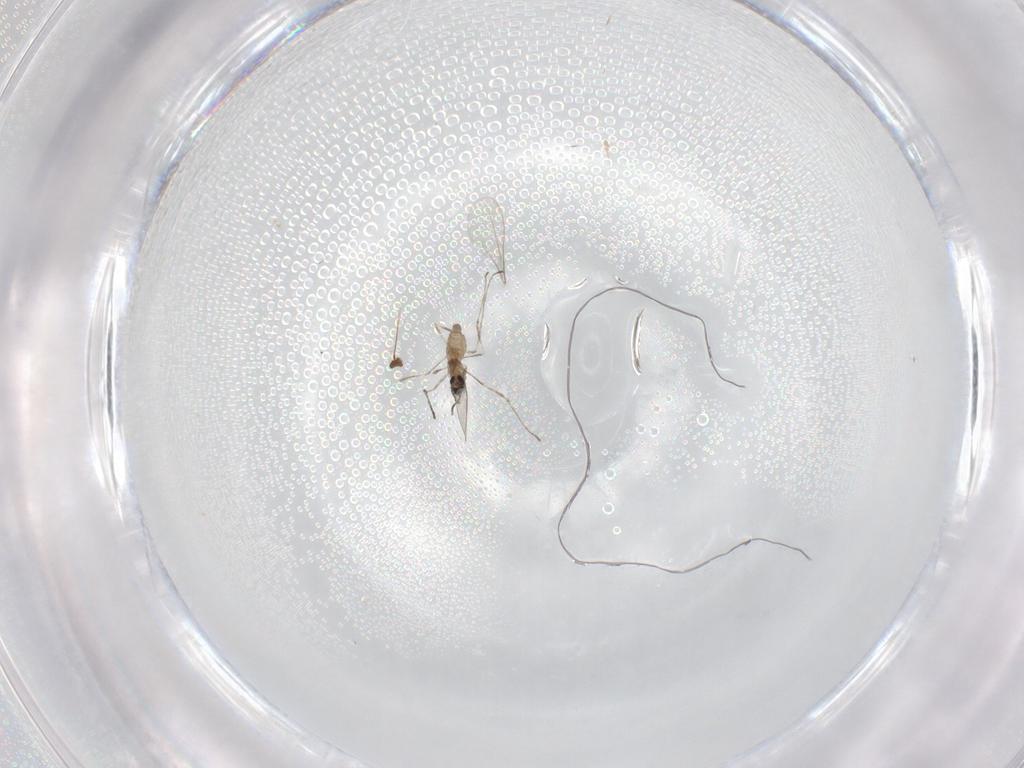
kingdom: Animalia
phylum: Arthropoda
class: Insecta
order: Diptera
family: Cecidomyiidae
